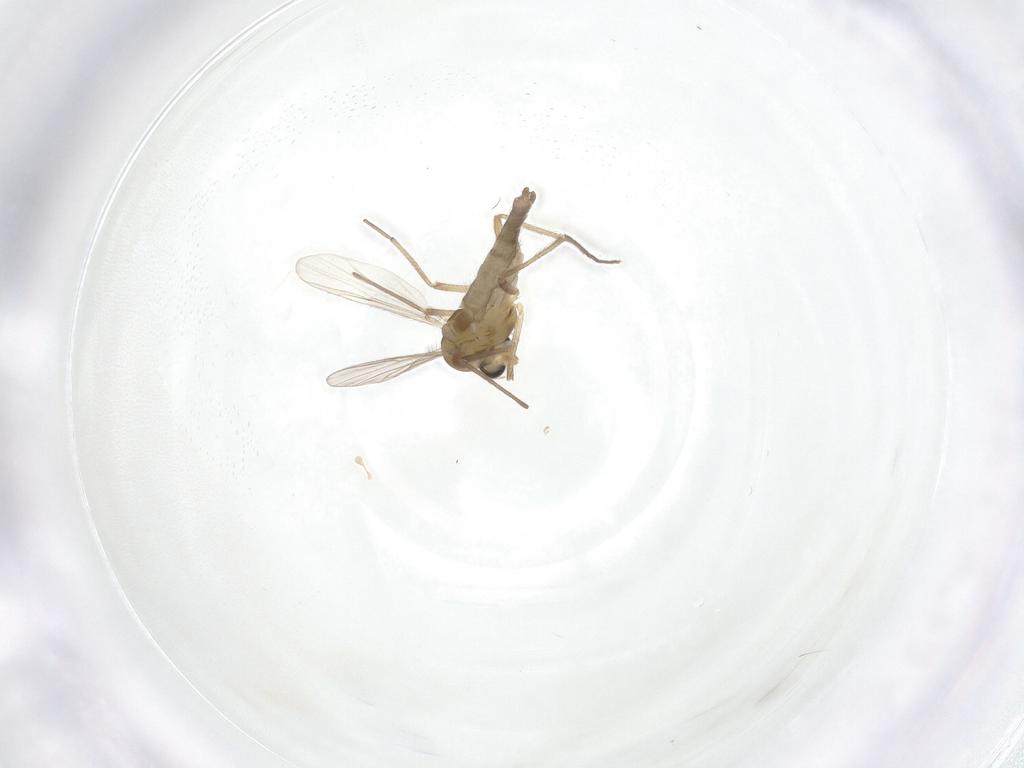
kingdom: Animalia
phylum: Arthropoda
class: Insecta
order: Diptera
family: Chironomidae
